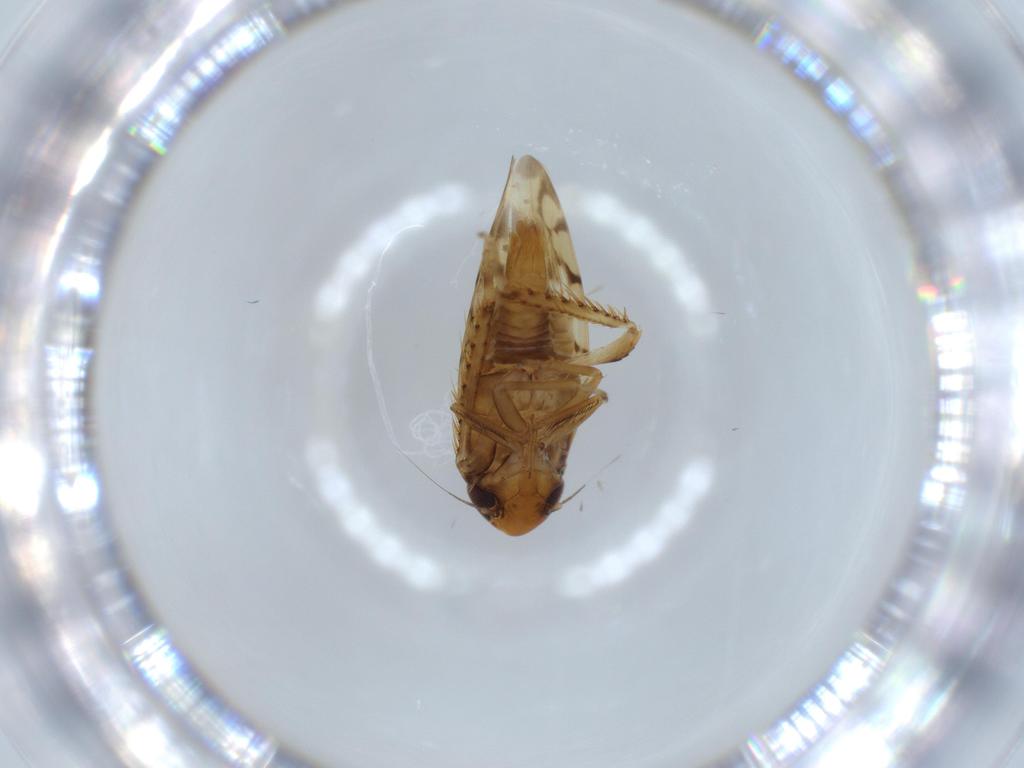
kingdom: Animalia
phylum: Arthropoda
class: Insecta
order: Hemiptera
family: Cicadellidae
